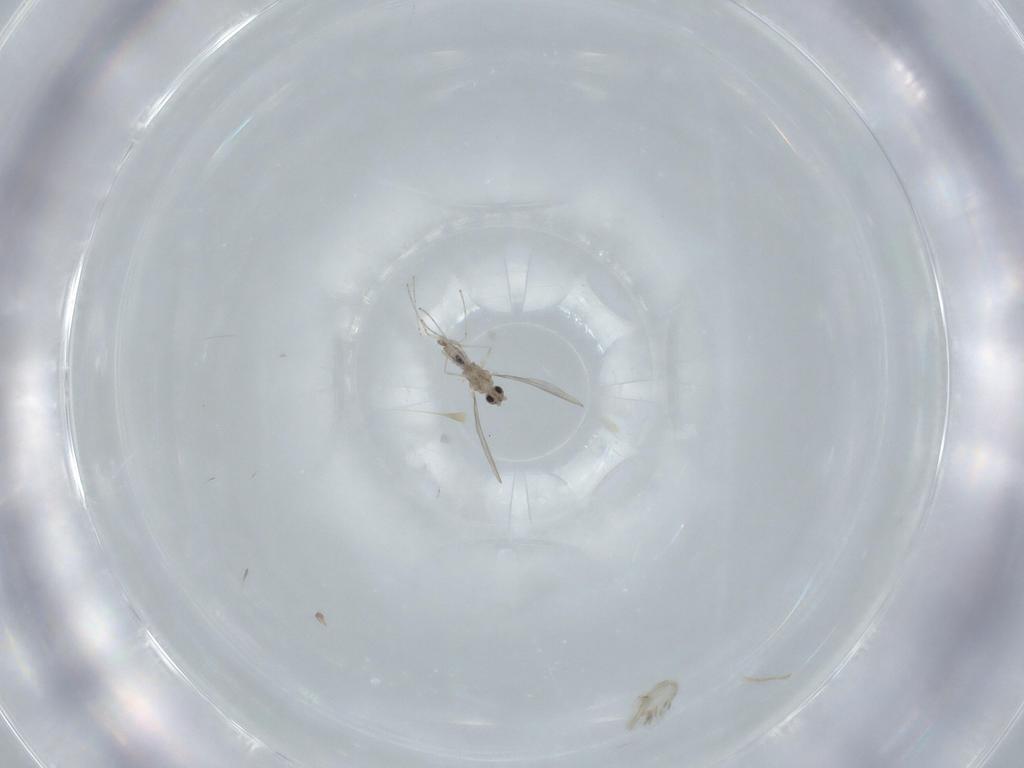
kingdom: Animalia
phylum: Arthropoda
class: Insecta
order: Diptera
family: Cecidomyiidae
